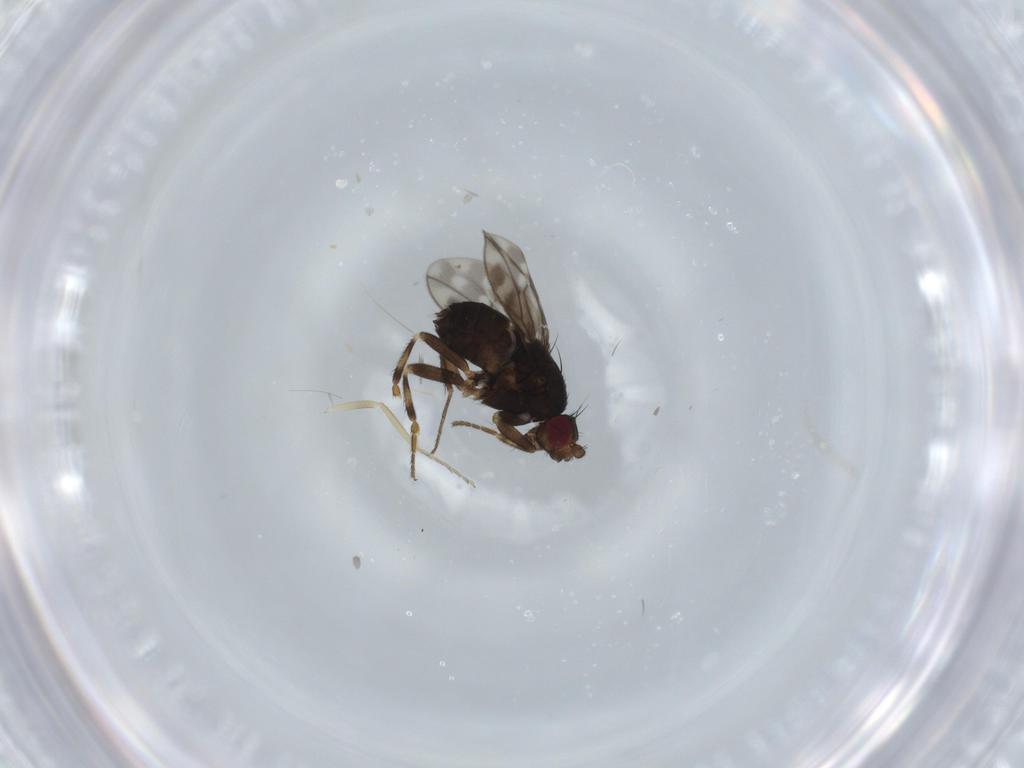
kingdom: Animalia
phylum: Arthropoda
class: Insecta
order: Diptera
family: Sphaeroceridae
